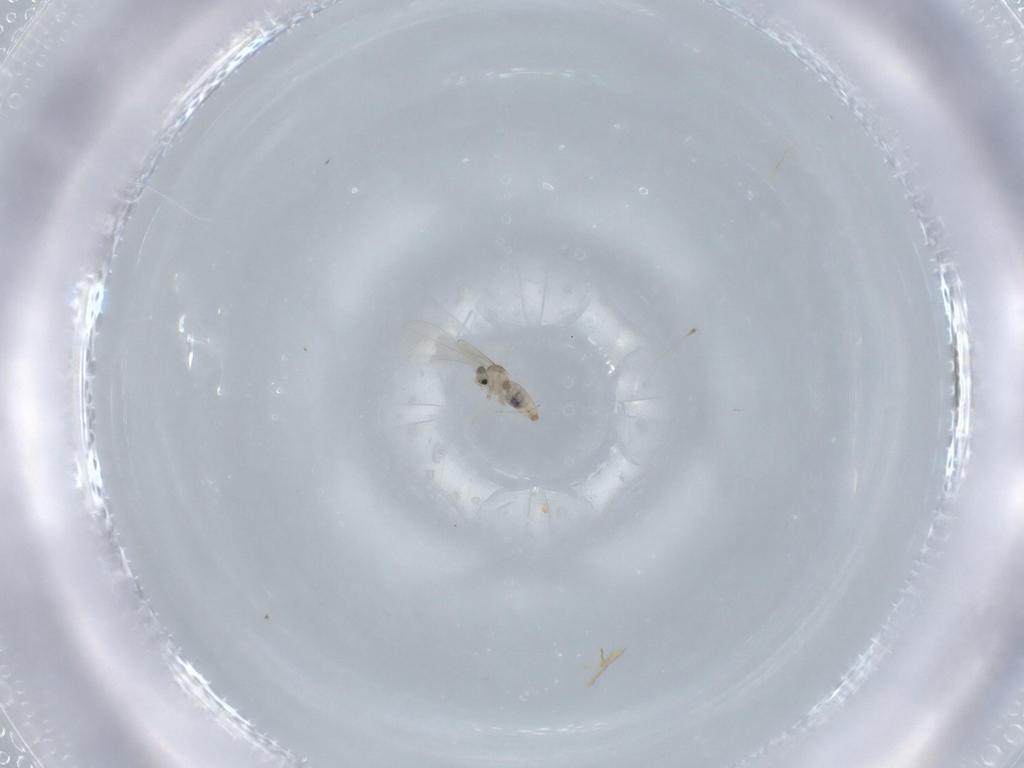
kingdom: Animalia
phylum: Arthropoda
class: Insecta
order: Diptera
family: Cecidomyiidae
